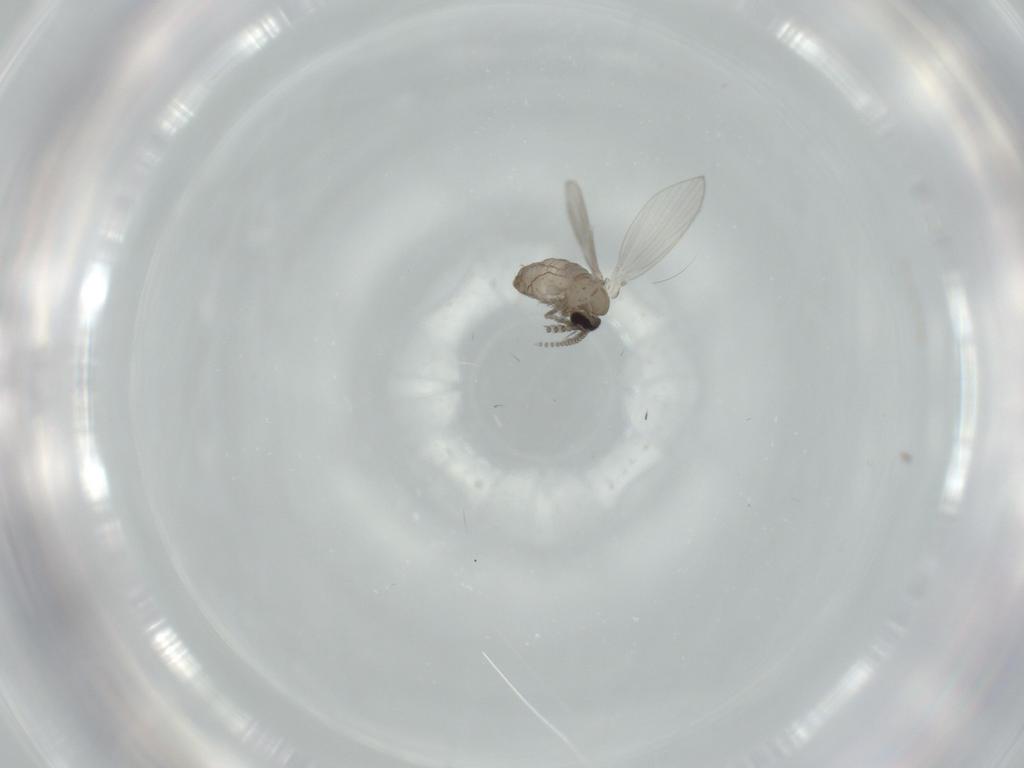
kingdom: Animalia
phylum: Arthropoda
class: Insecta
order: Diptera
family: Psychodidae
